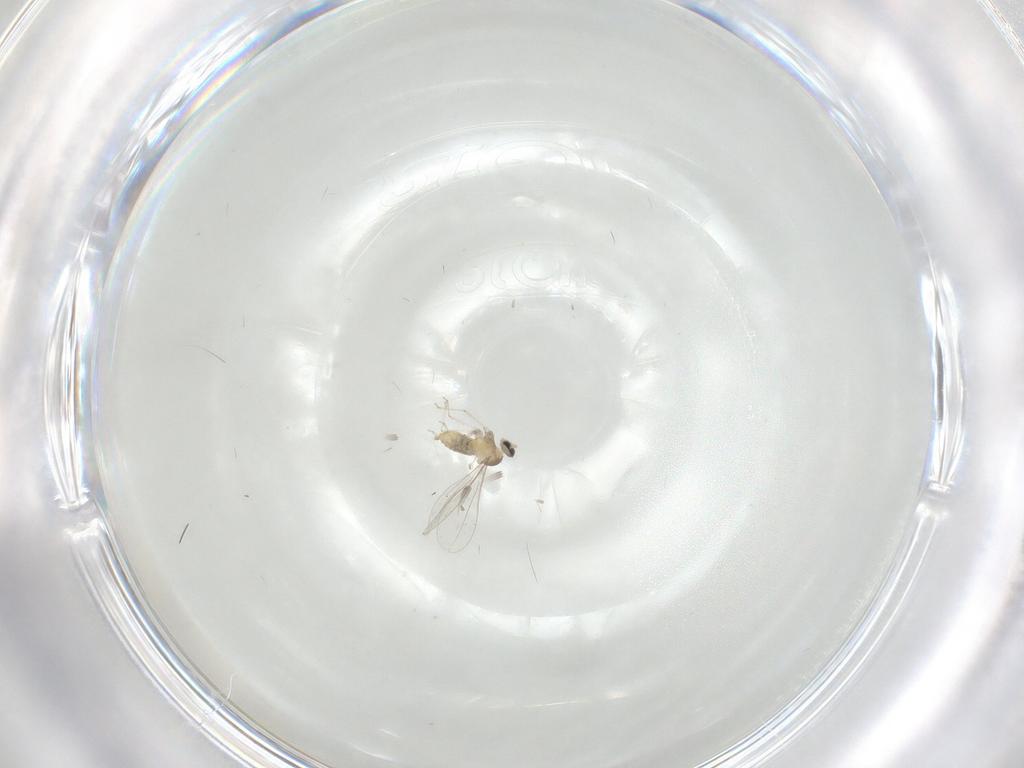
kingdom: Animalia
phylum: Arthropoda
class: Insecta
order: Diptera
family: Cecidomyiidae
